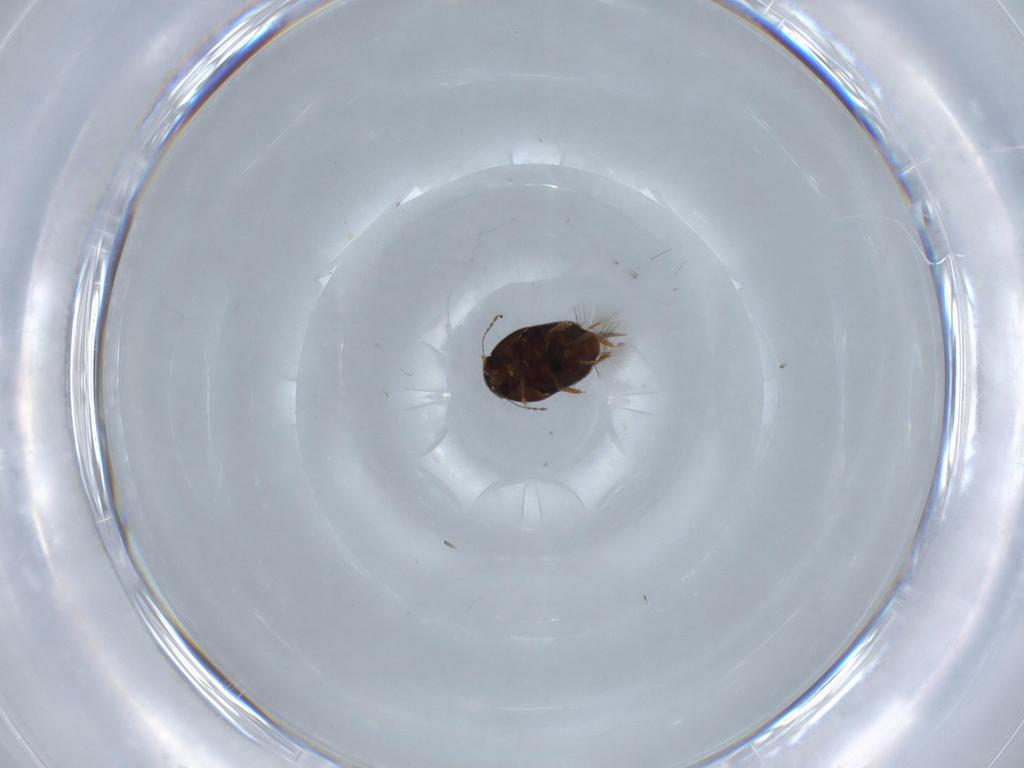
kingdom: Animalia
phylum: Arthropoda
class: Insecta
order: Coleoptera
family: Ptiliidae
